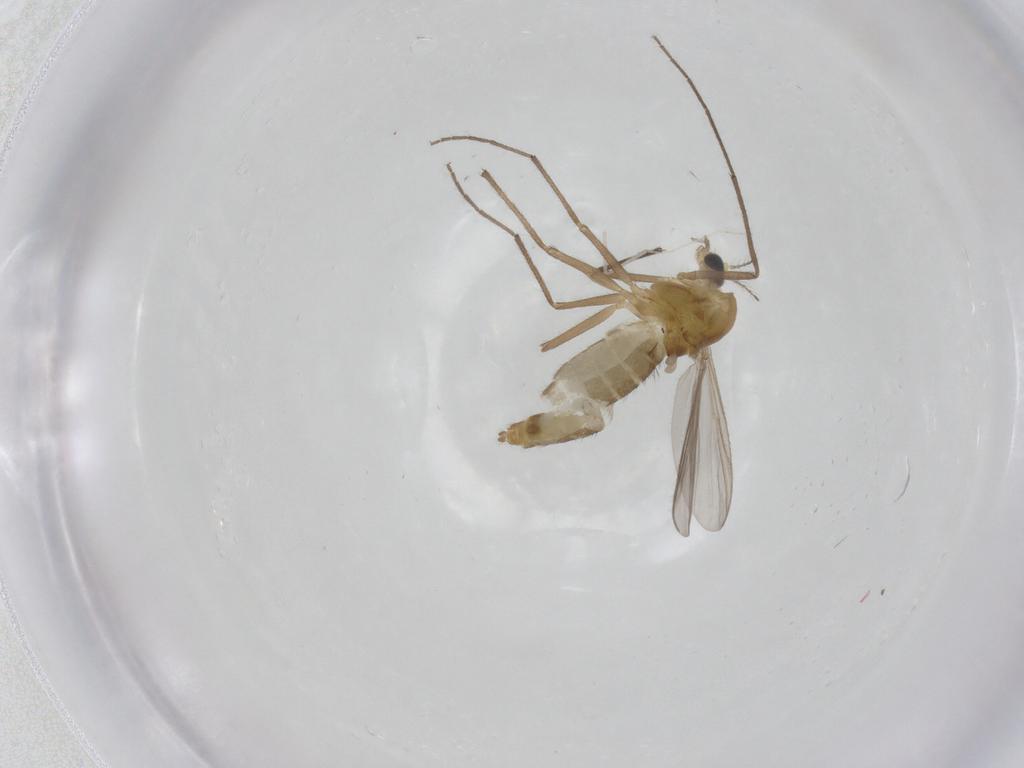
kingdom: Animalia
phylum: Arthropoda
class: Insecta
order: Diptera
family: Chironomidae
